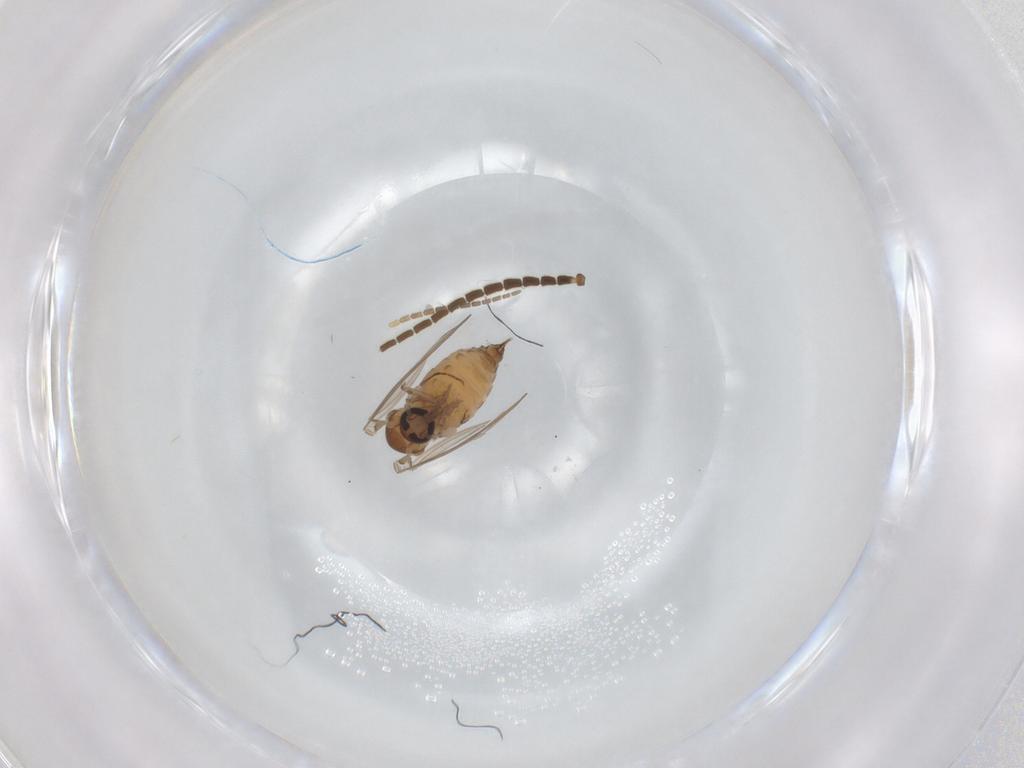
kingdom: Animalia
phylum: Arthropoda
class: Insecta
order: Diptera
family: Sciaridae
